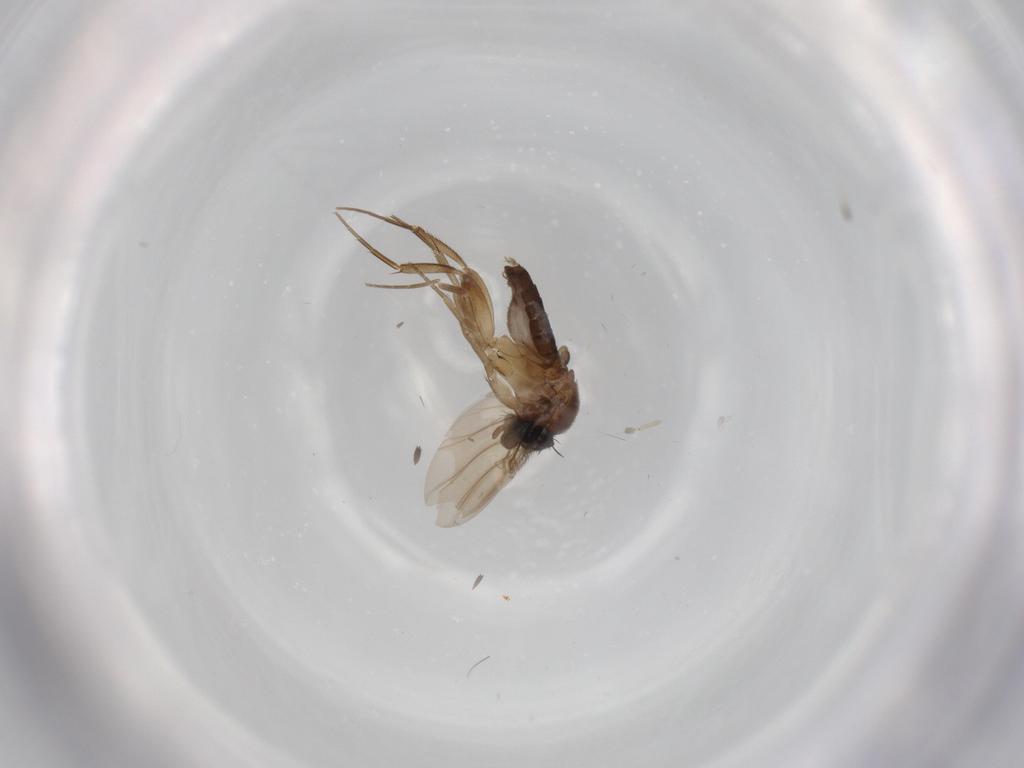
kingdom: Animalia
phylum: Arthropoda
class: Insecta
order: Diptera
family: Phoridae
